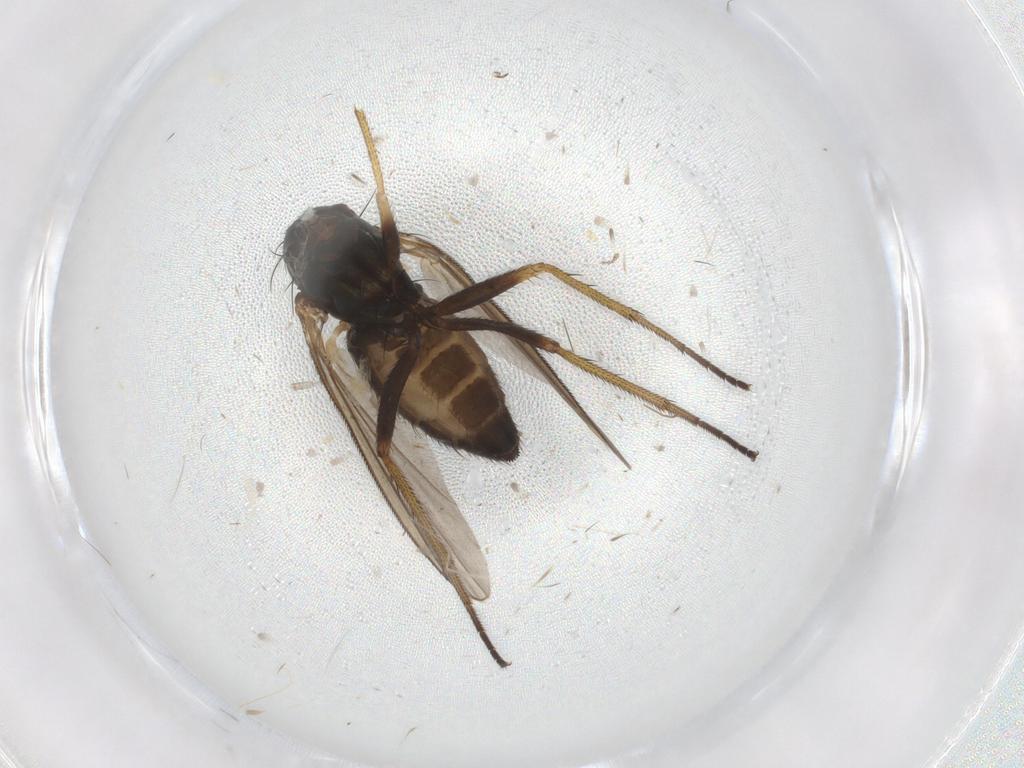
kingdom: Animalia
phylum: Arthropoda
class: Insecta
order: Diptera
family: Dolichopodidae
